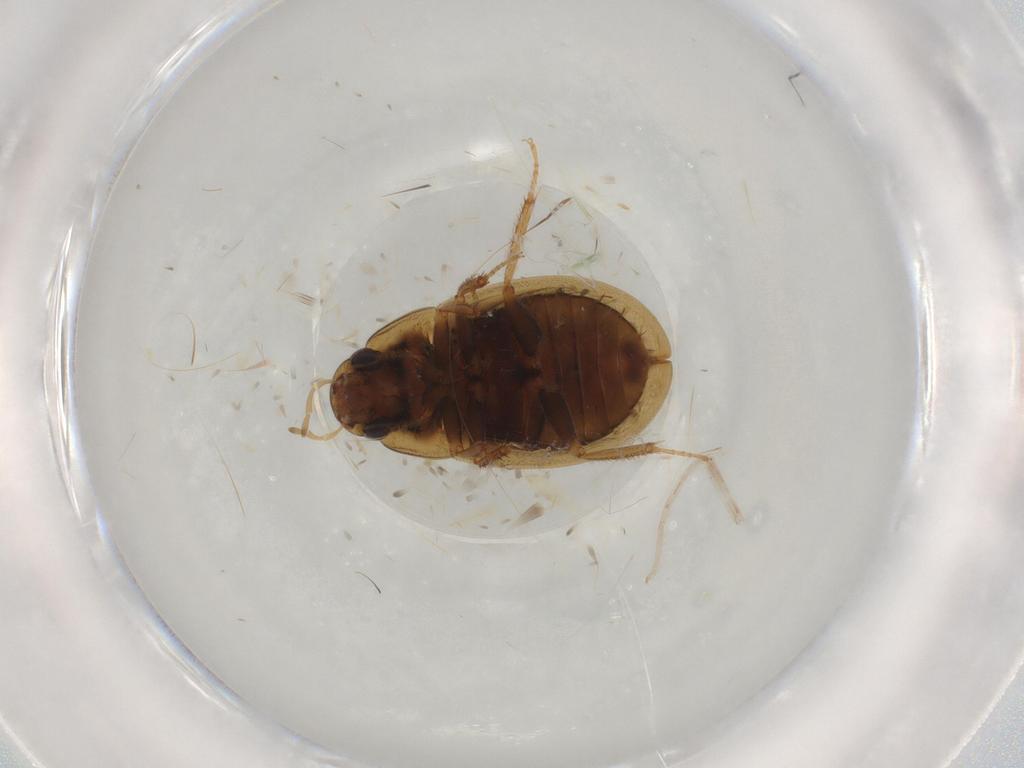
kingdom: Animalia
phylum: Arthropoda
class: Insecta
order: Coleoptera
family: Hydrophilidae
